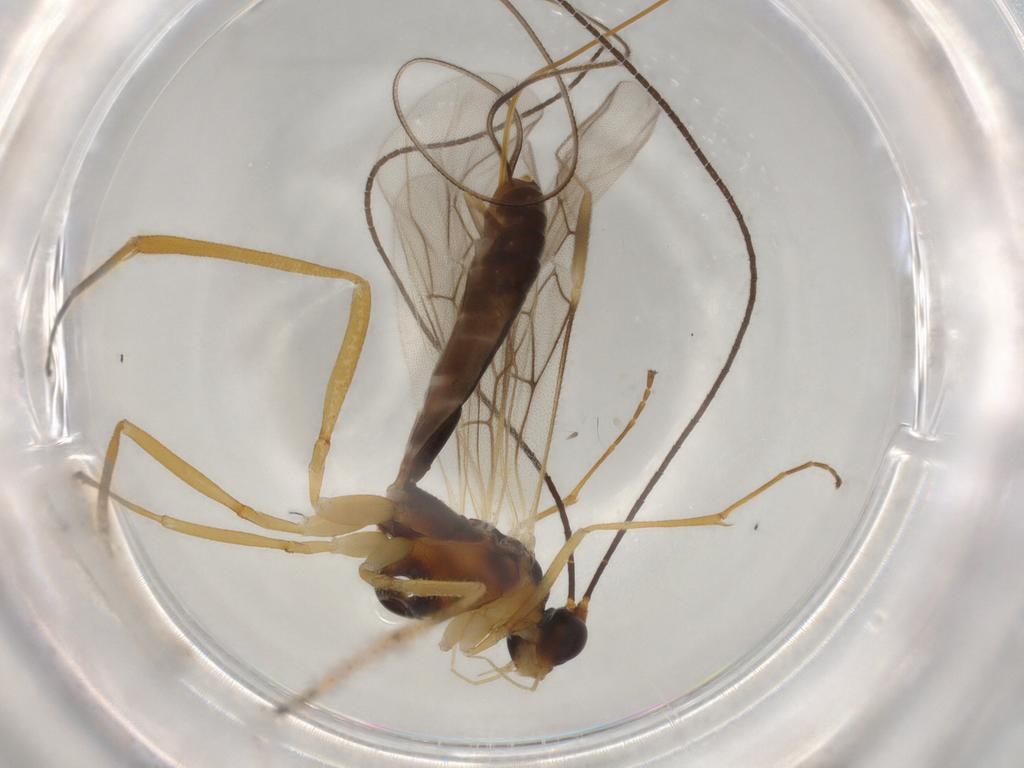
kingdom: Animalia
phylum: Arthropoda
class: Insecta
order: Hymenoptera
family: Braconidae
